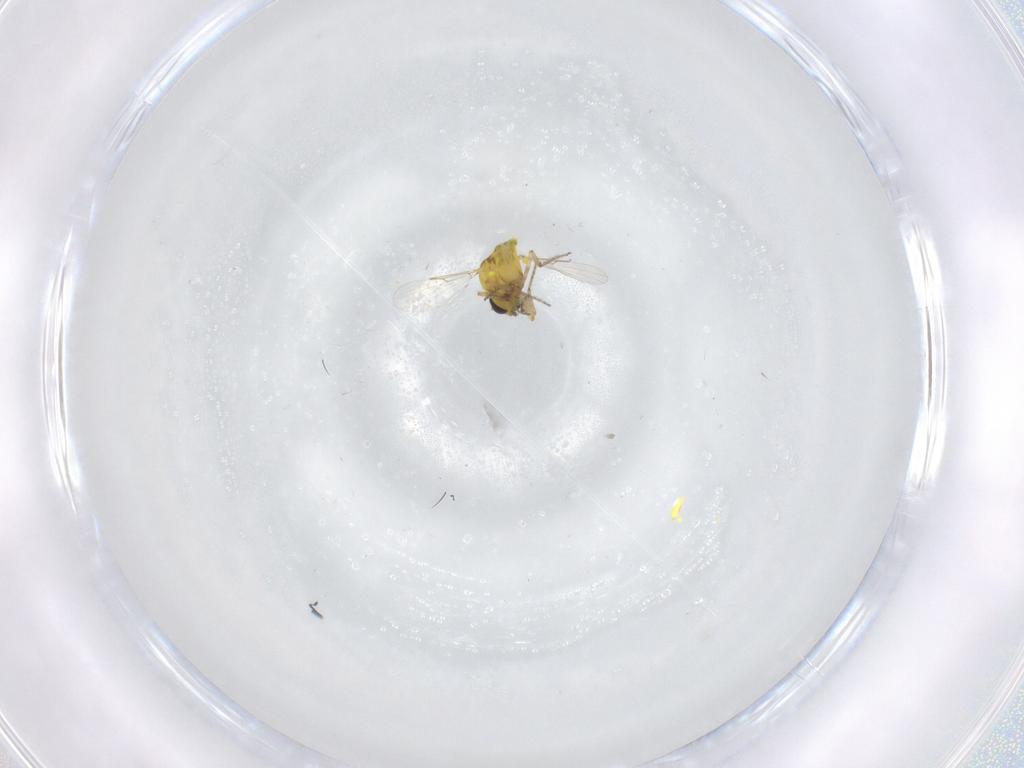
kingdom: Animalia
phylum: Arthropoda
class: Insecta
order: Diptera
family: Ceratopogonidae
